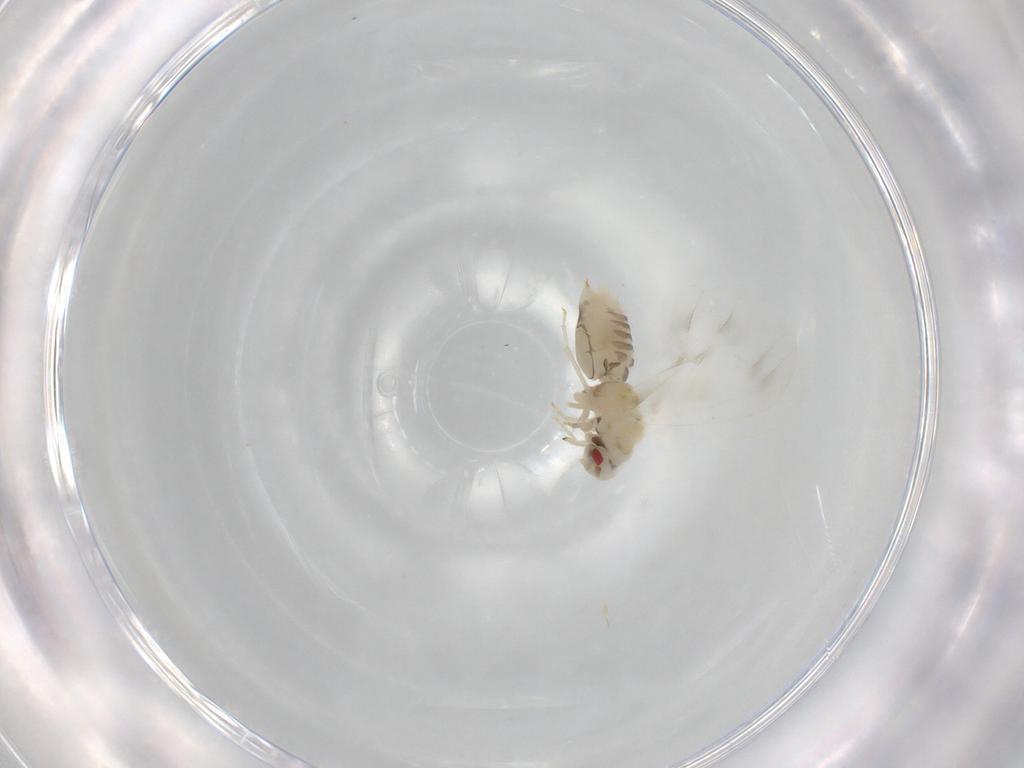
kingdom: Animalia
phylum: Arthropoda
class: Insecta
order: Hemiptera
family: Aleyrodidae
